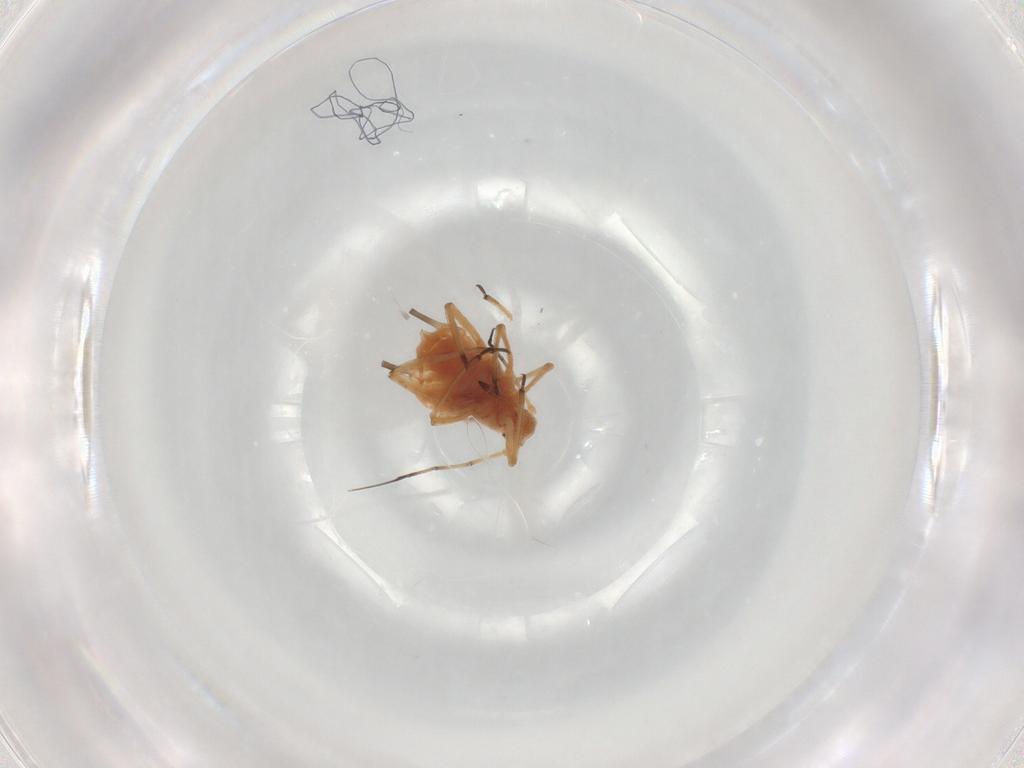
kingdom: Animalia
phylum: Arthropoda
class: Insecta
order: Hemiptera
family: Aphididae
